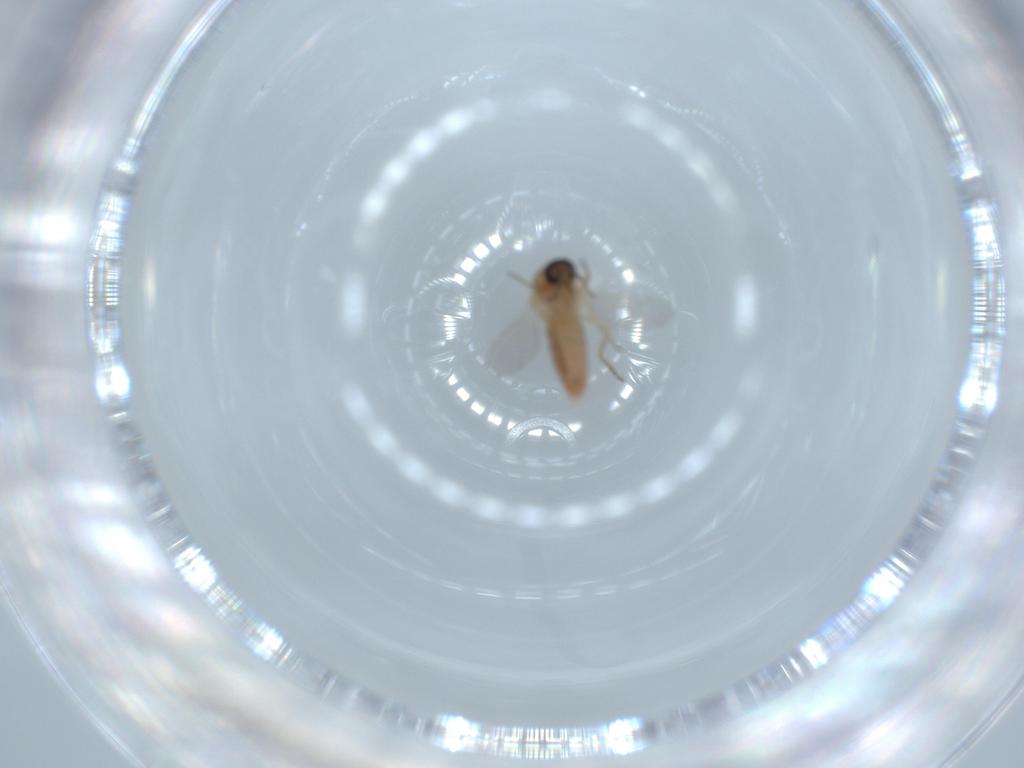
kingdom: Animalia
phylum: Arthropoda
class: Insecta
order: Diptera
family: Ceratopogonidae
